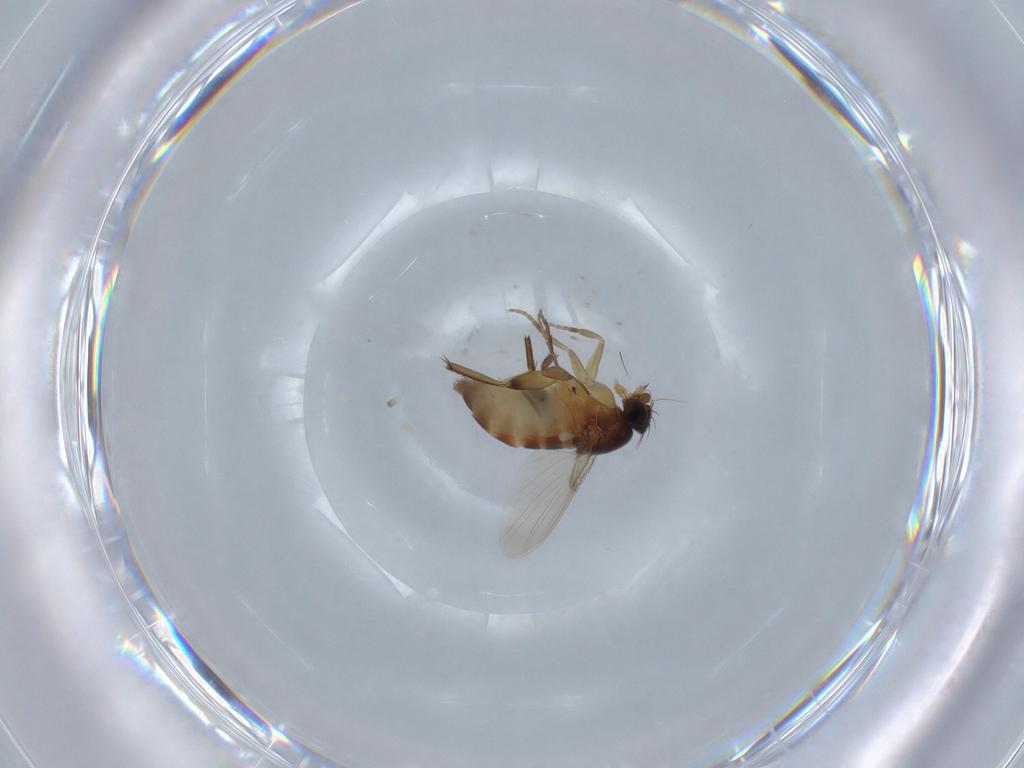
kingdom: Animalia
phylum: Arthropoda
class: Insecta
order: Diptera
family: Phoridae
